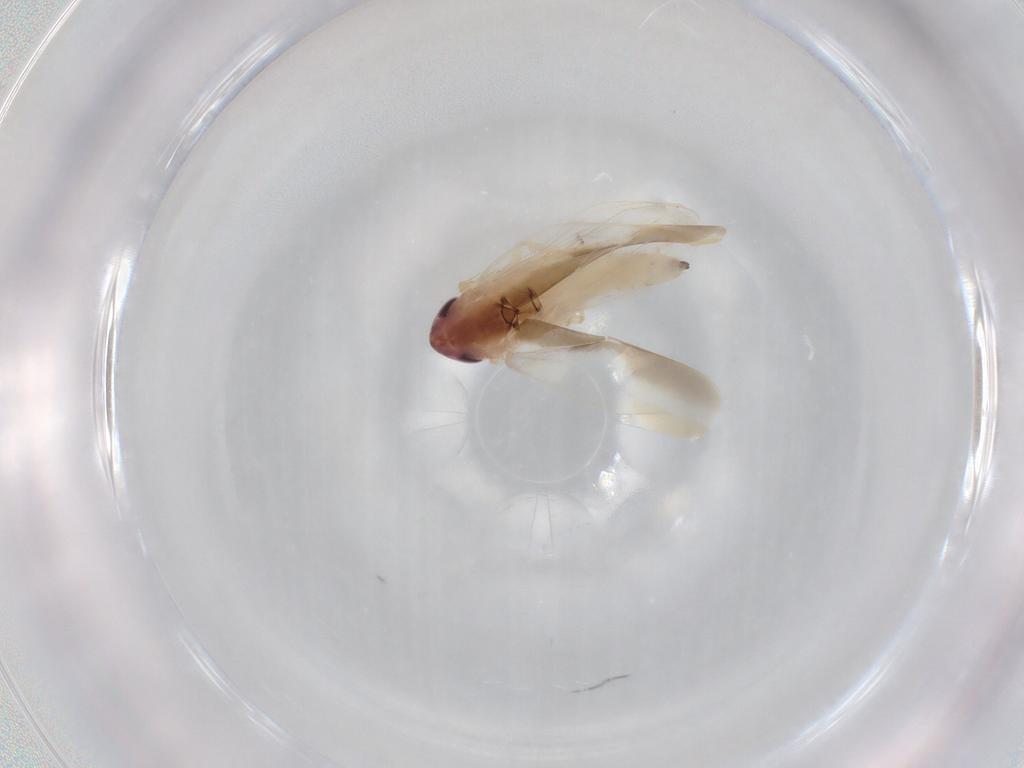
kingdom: Animalia
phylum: Arthropoda
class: Insecta
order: Hemiptera
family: Cicadellidae
